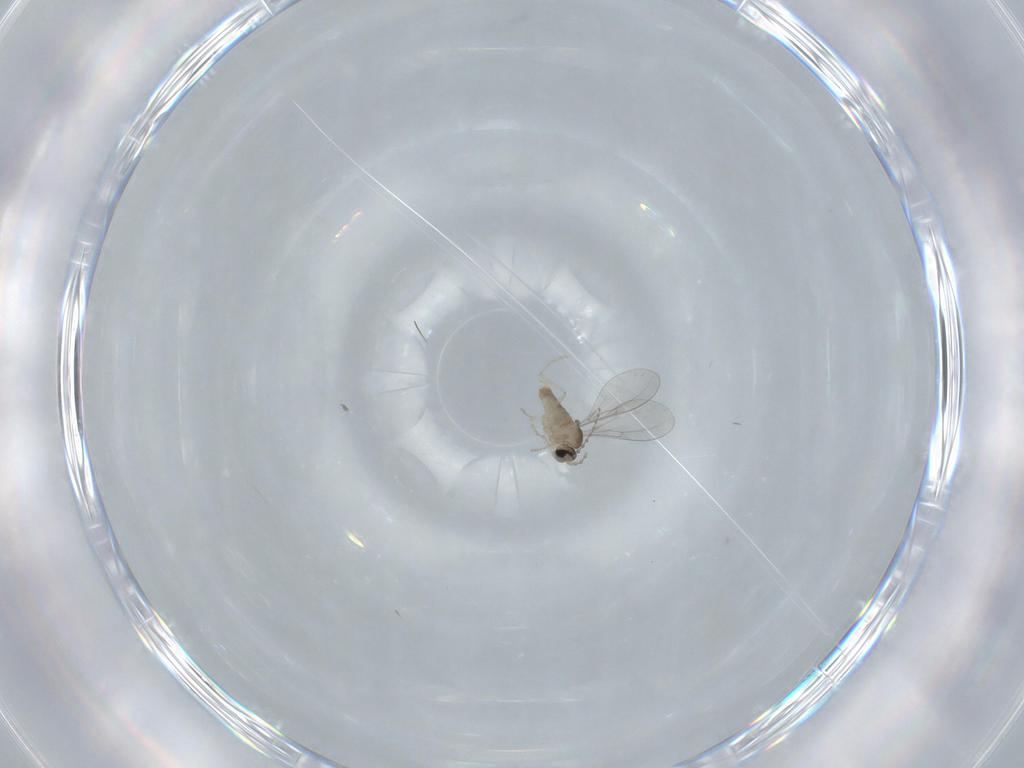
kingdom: Animalia
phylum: Arthropoda
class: Insecta
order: Diptera
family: Cecidomyiidae
